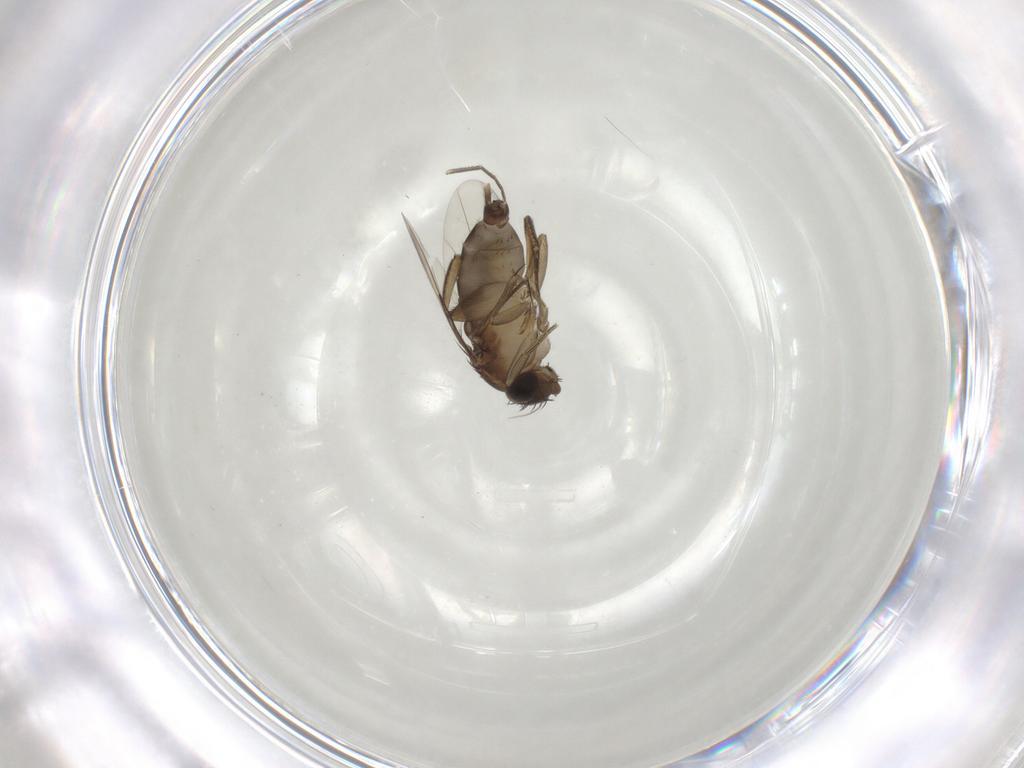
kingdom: Animalia
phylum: Arthropoda
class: Insecta
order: Diptera
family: Phoridae
